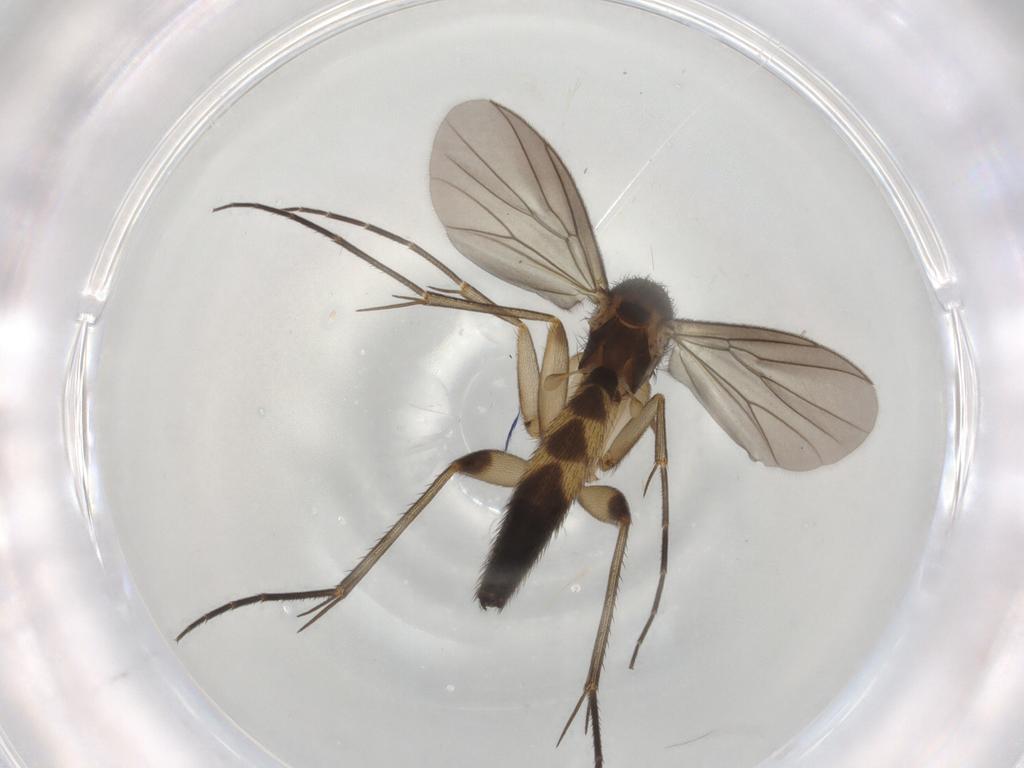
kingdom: Animalia
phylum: Arthropoda
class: Insecta
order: Diptera
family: Mycetophilidae
